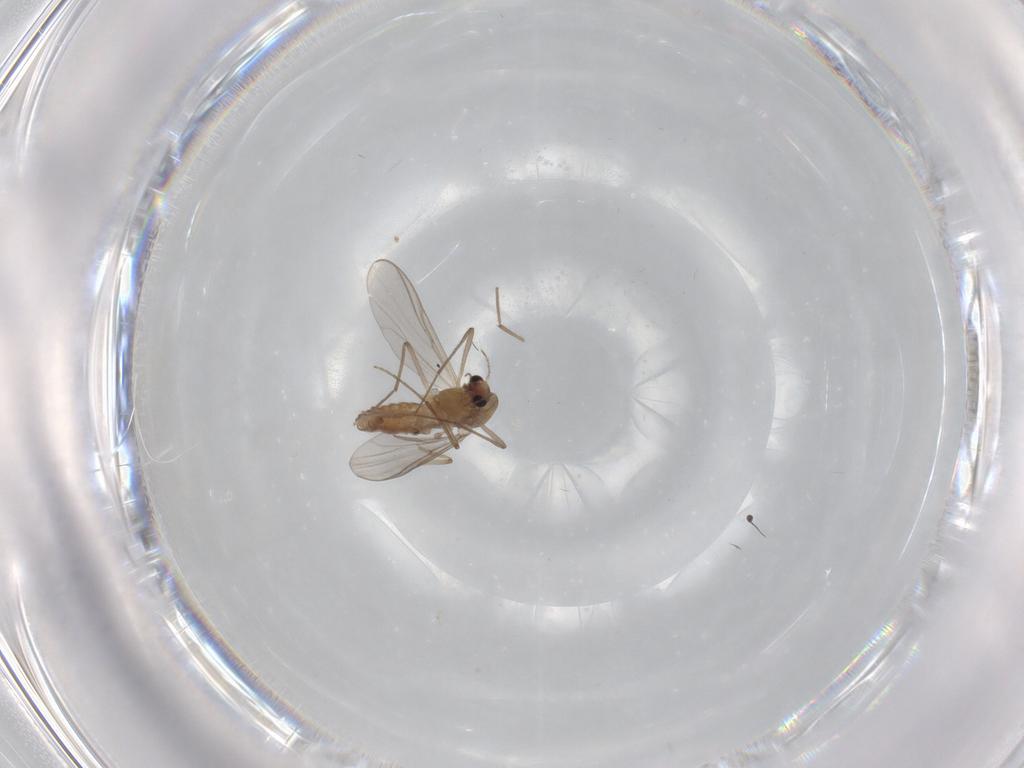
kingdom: Animalia
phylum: Arthropoda
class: Insecta
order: Diptera
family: Chironomidae
